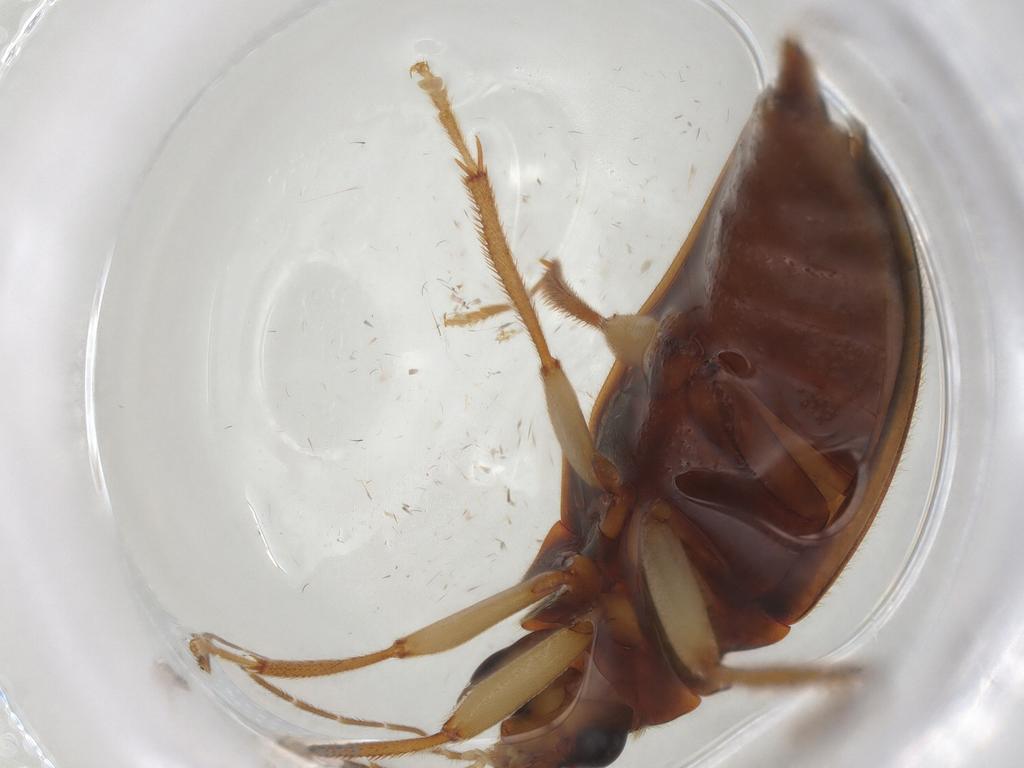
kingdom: Animalia
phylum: Arthropoda
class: Insecta
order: Coleoptera
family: Ptilodactylidae
